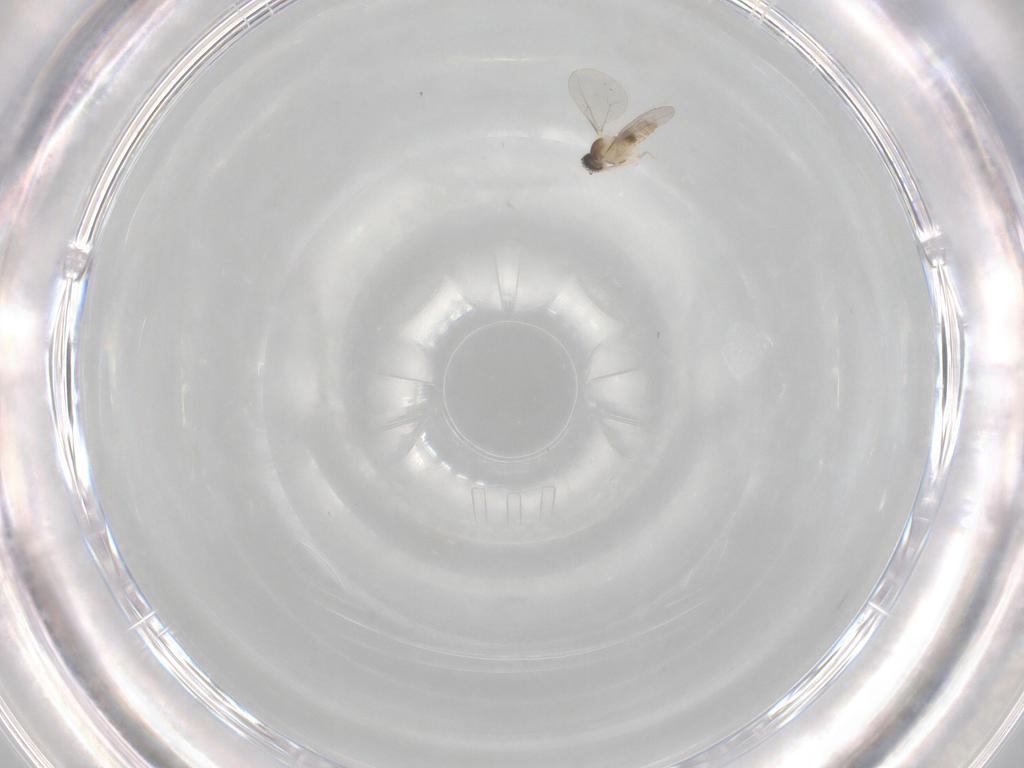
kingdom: Animalia
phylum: Arthropoda
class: Insecta
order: Diptera
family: Cecidomyiidae
